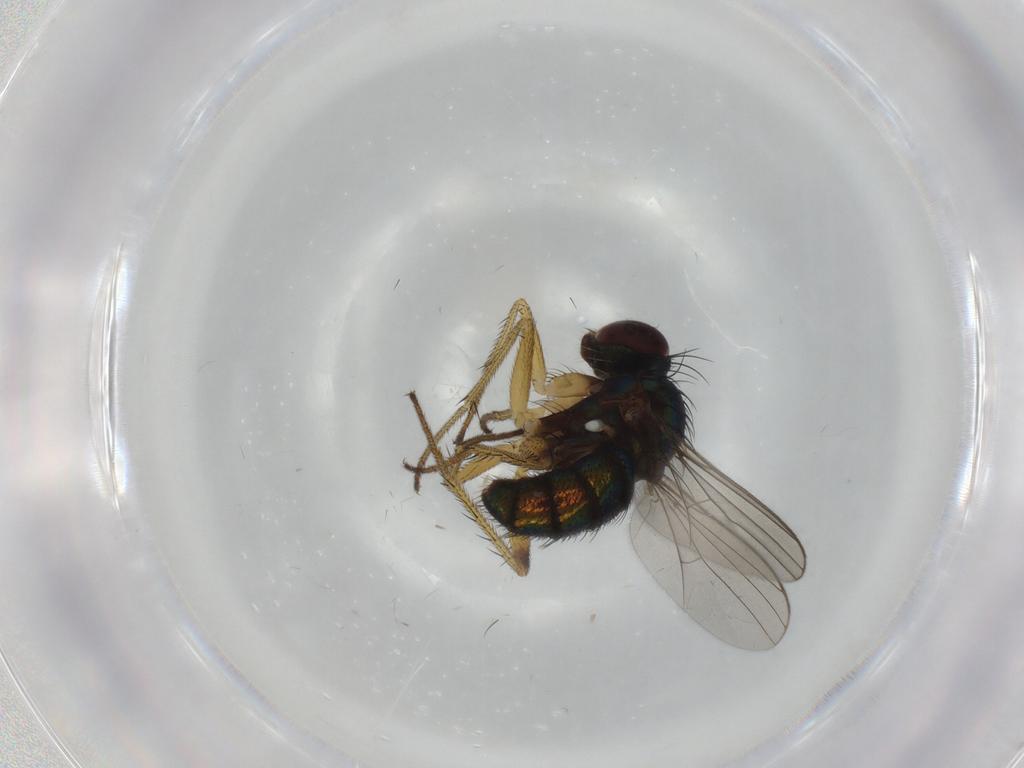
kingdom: Animalia
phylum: Arthropoda
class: Insecta
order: Diptera
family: Dolichopodidae
